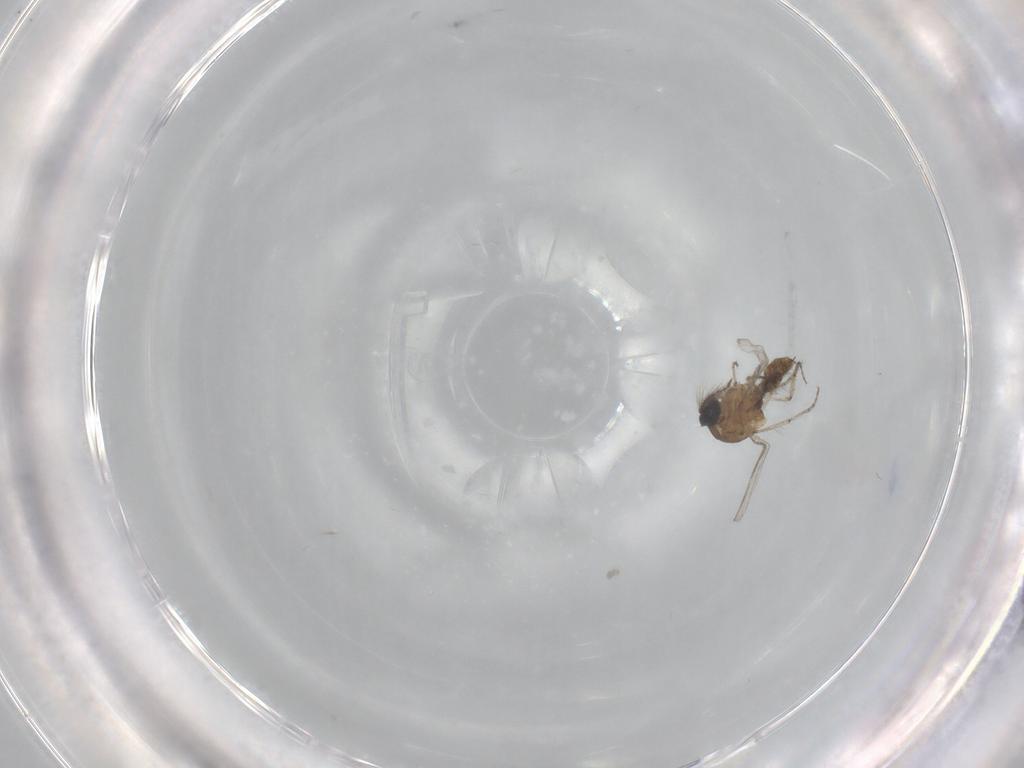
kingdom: Animalia
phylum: Arthropoda
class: Insecta
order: Diptera
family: Ceratopogonidae
